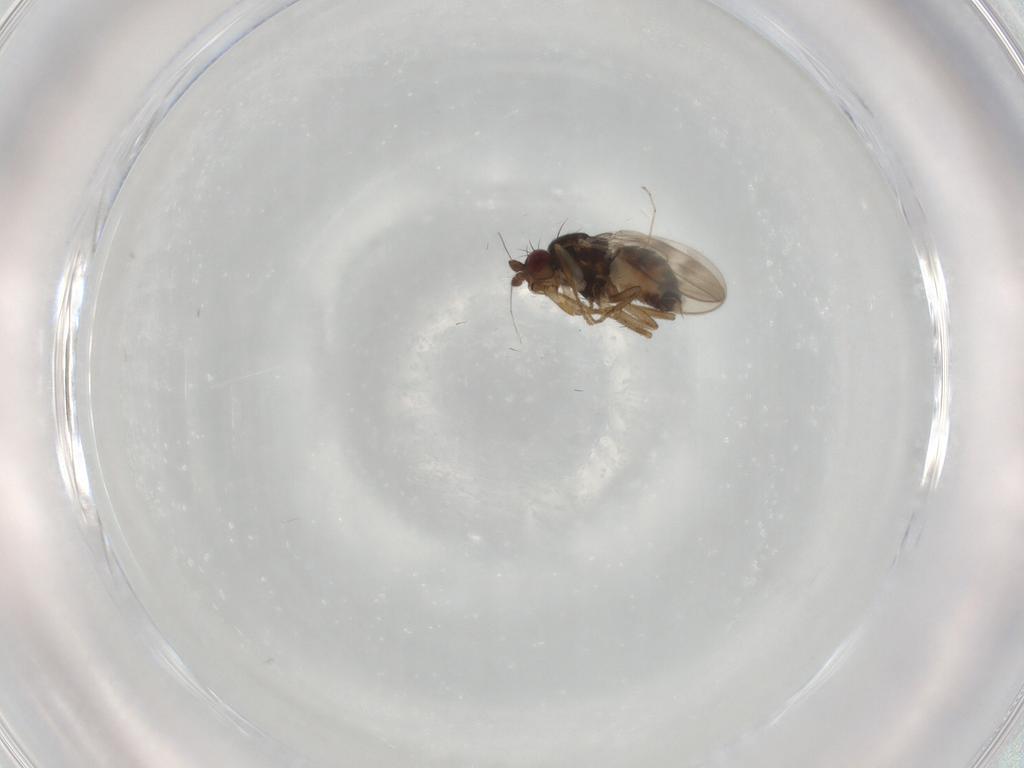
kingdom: Animalia
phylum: Arthropoda
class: Insecta
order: Diptera
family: Sphaeroceridae
